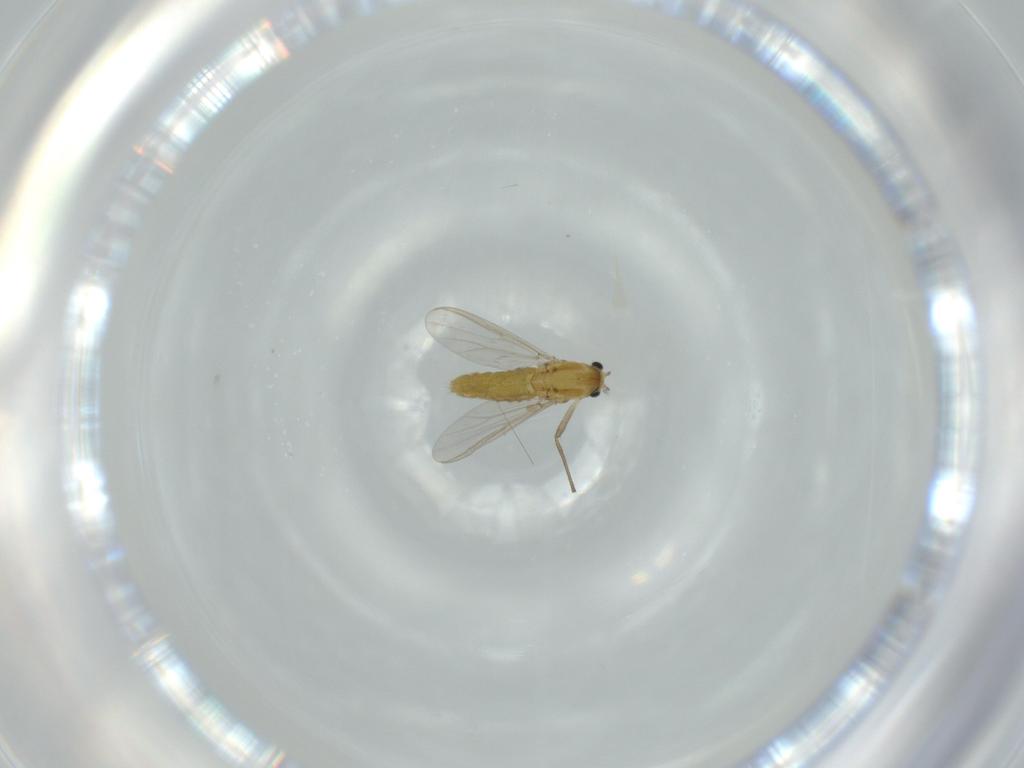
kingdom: Animalia
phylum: Arthropoda
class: Insecta
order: Diptera
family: Chironomidae
